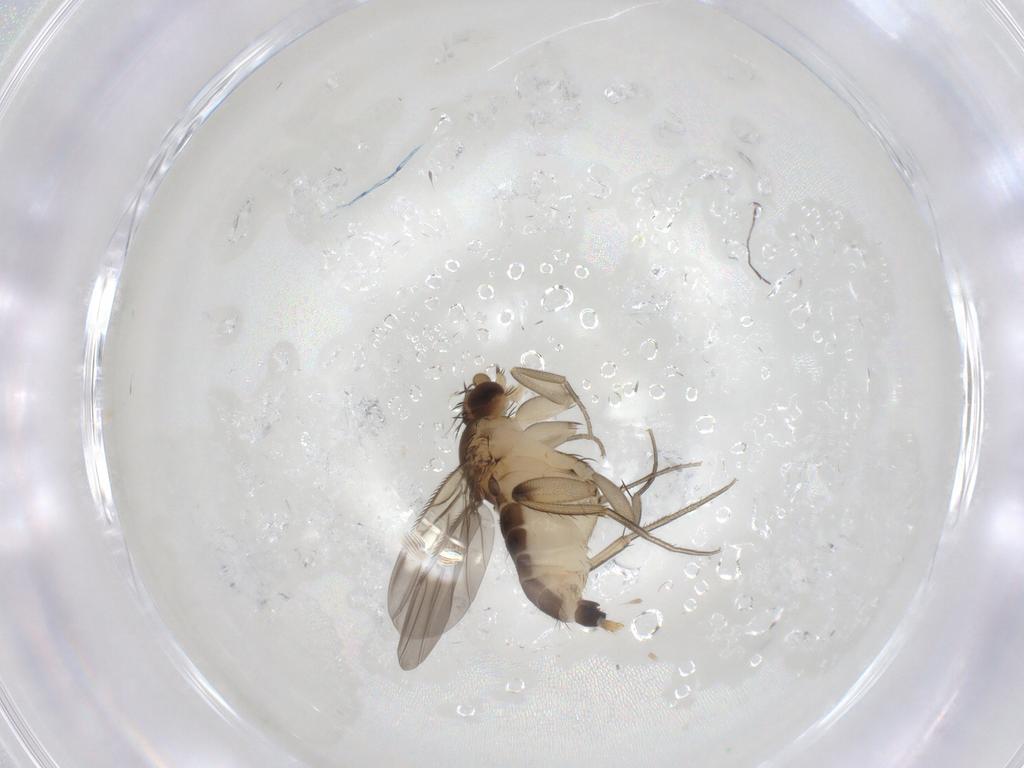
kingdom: Animalia
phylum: Arthropoda
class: Insecta
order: Diptera
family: Phoridae
